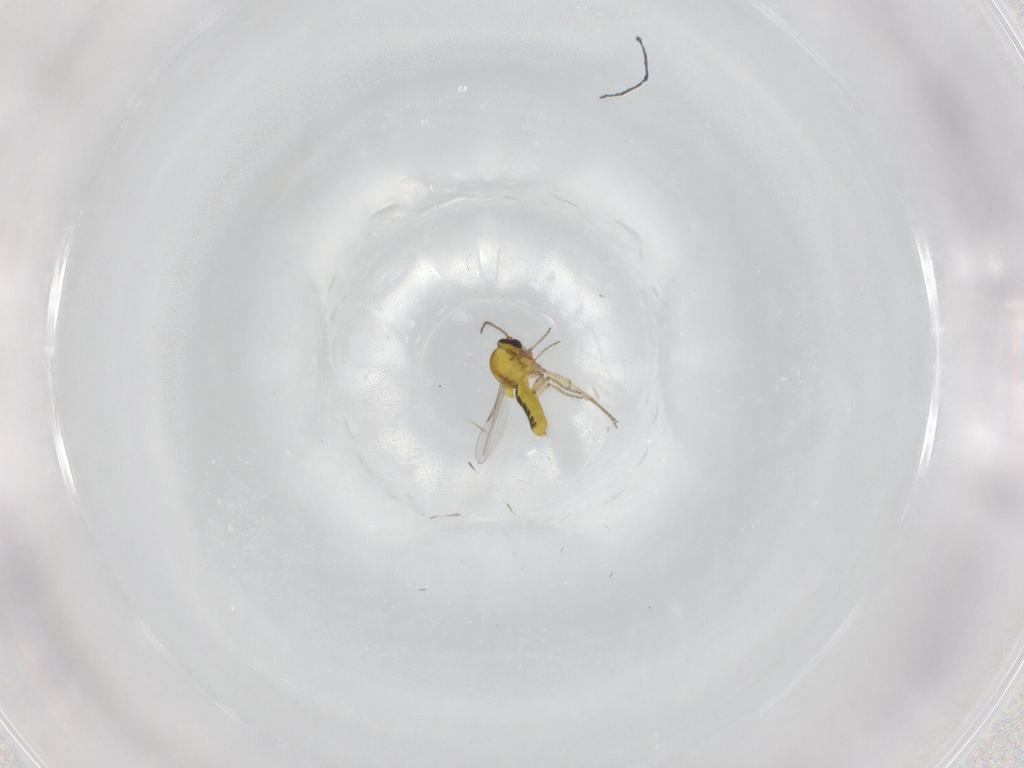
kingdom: Animalia
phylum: Arthropoda
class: Insecta
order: Diptera
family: Ceratopogonidae
